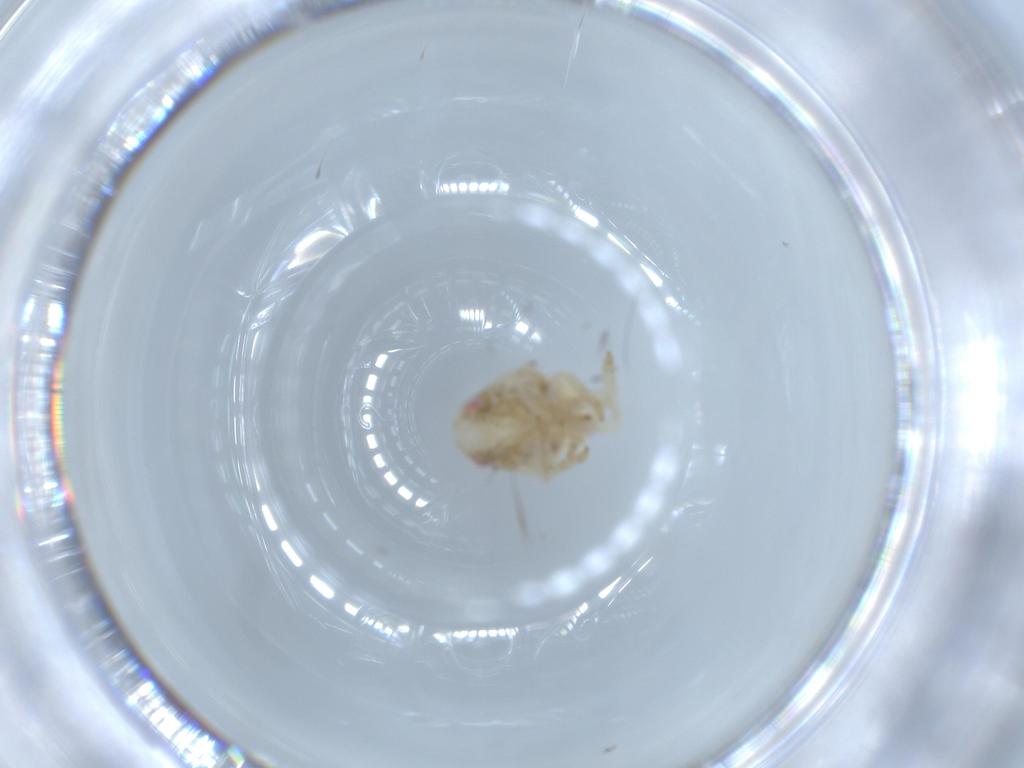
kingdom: Animalia
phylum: Arthropoda
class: Insecta
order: Hemiptera
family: Acanaloniidae
